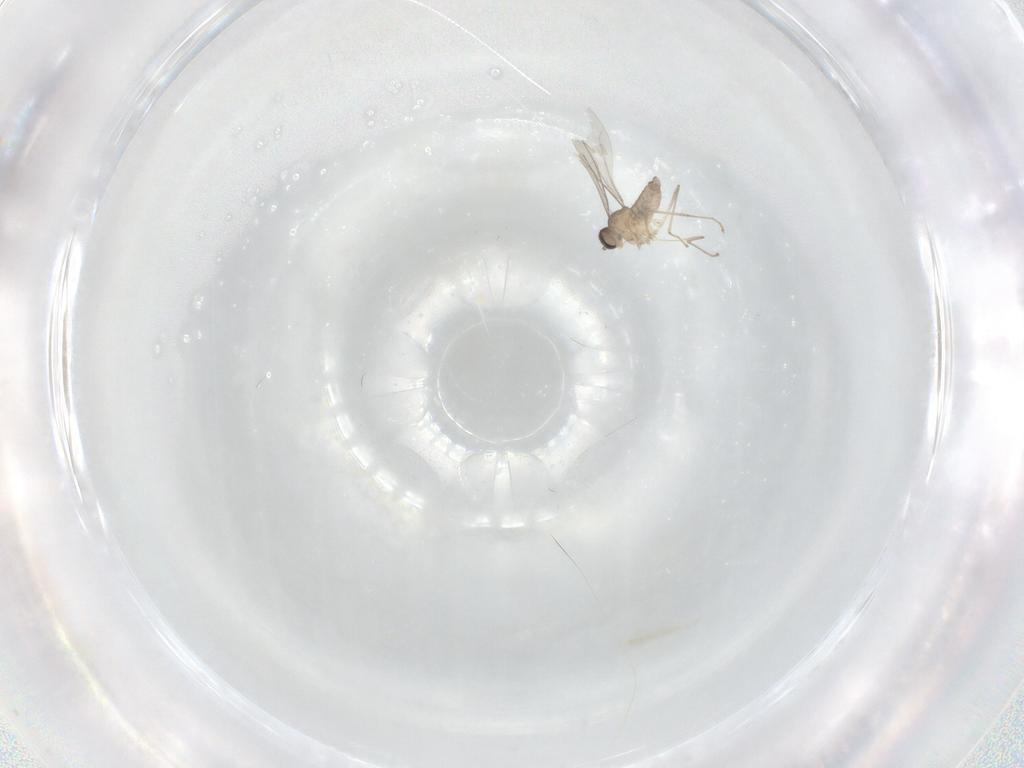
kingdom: Animalia
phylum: Arthropoda
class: Insecta
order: Diptera
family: Cecidomyiidae
